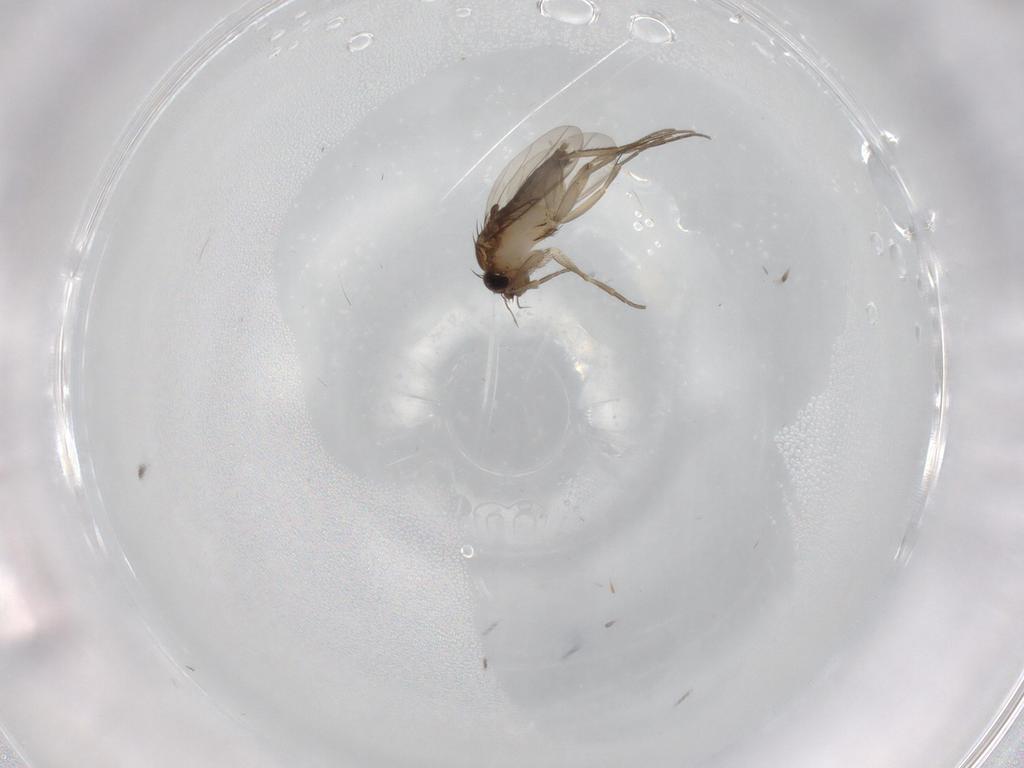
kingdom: Animalia
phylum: Arthropoda
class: Insecta
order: Diptera
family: Phoridae
